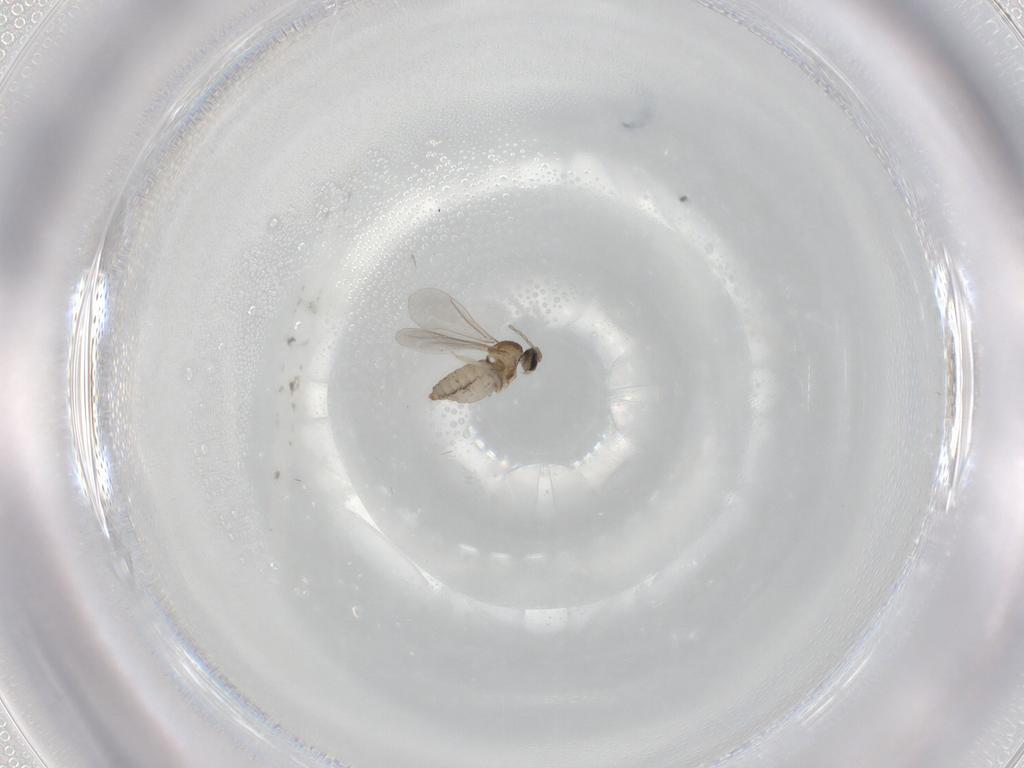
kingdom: Animalia
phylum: Arthropoda
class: Insecta
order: Diptera
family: Cecidomyiidae
